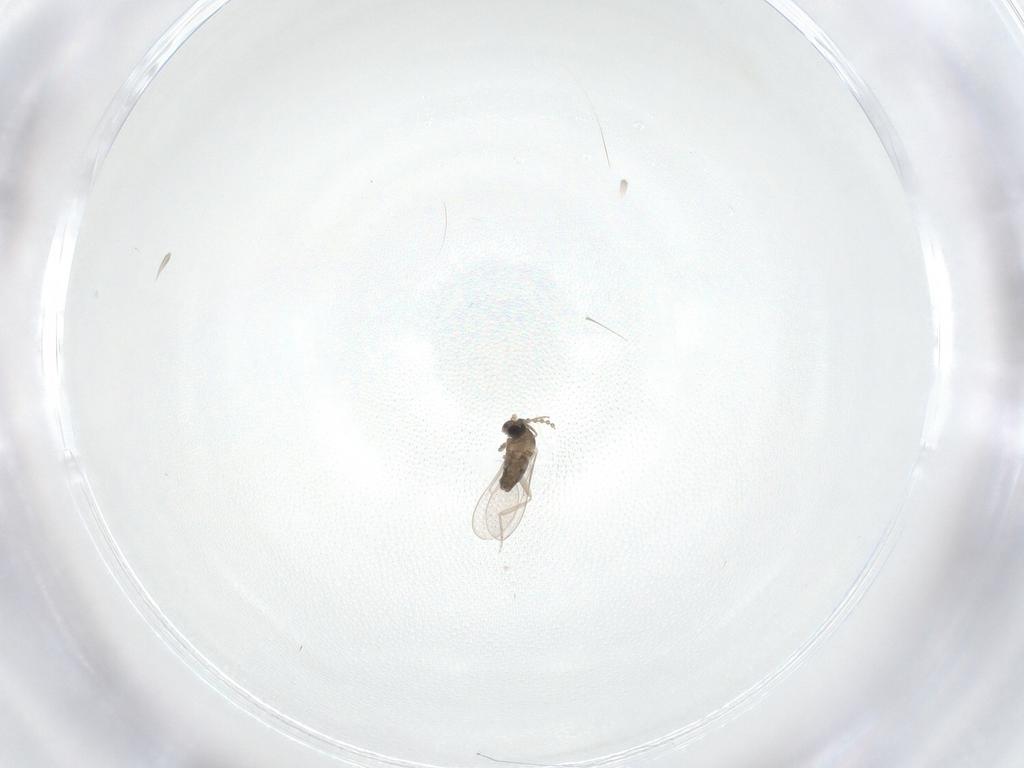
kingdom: Animalia
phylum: Arthropoda
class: Insecta
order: Diptera
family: Cecidomyiidae
